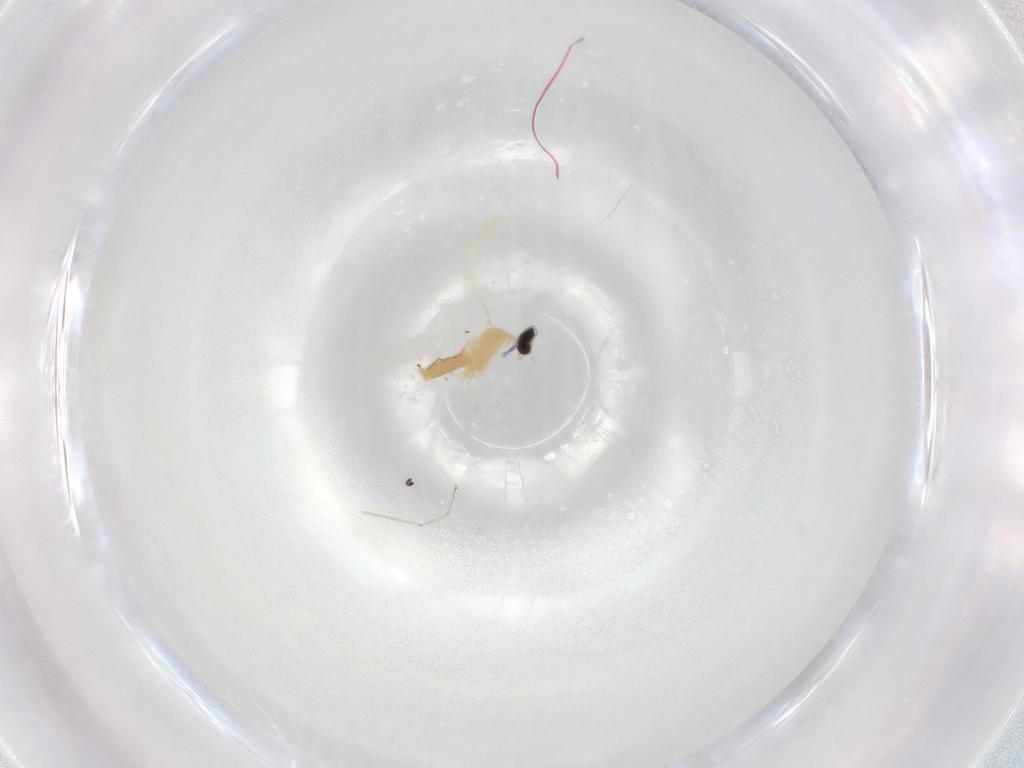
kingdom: Animalia
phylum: Arthropoda
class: Insecta
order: Diptera
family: Cecidomyiidae
